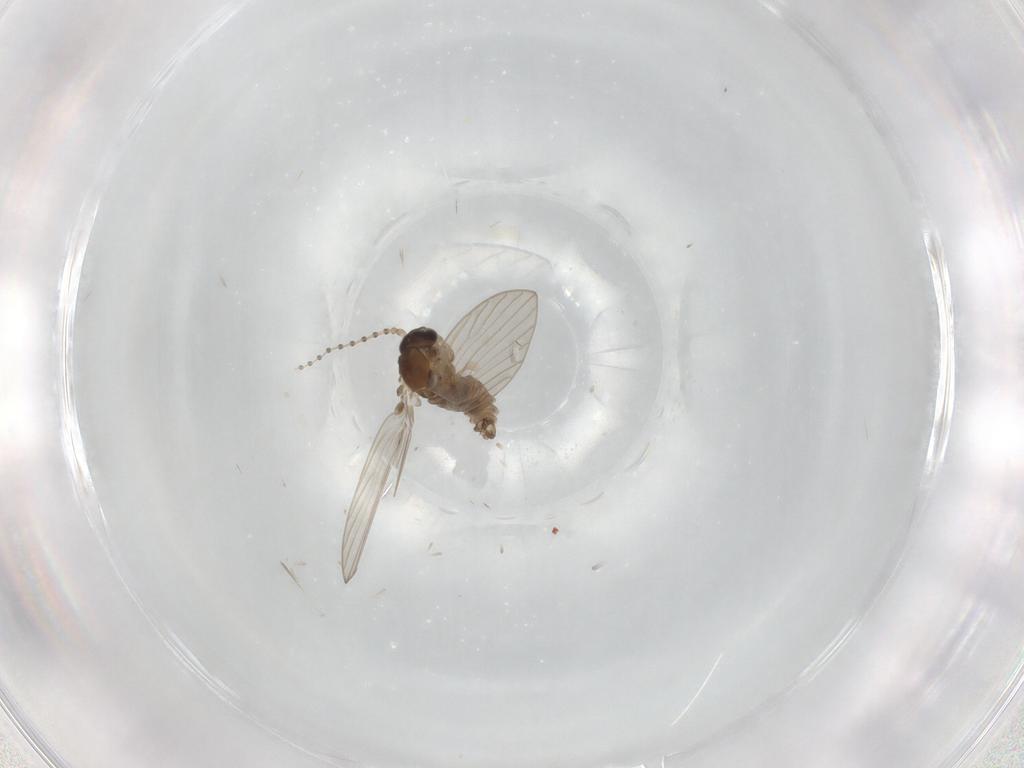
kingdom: Animalia
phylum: Arthropoda
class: Insecta
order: Diptera
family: Psychodidae
